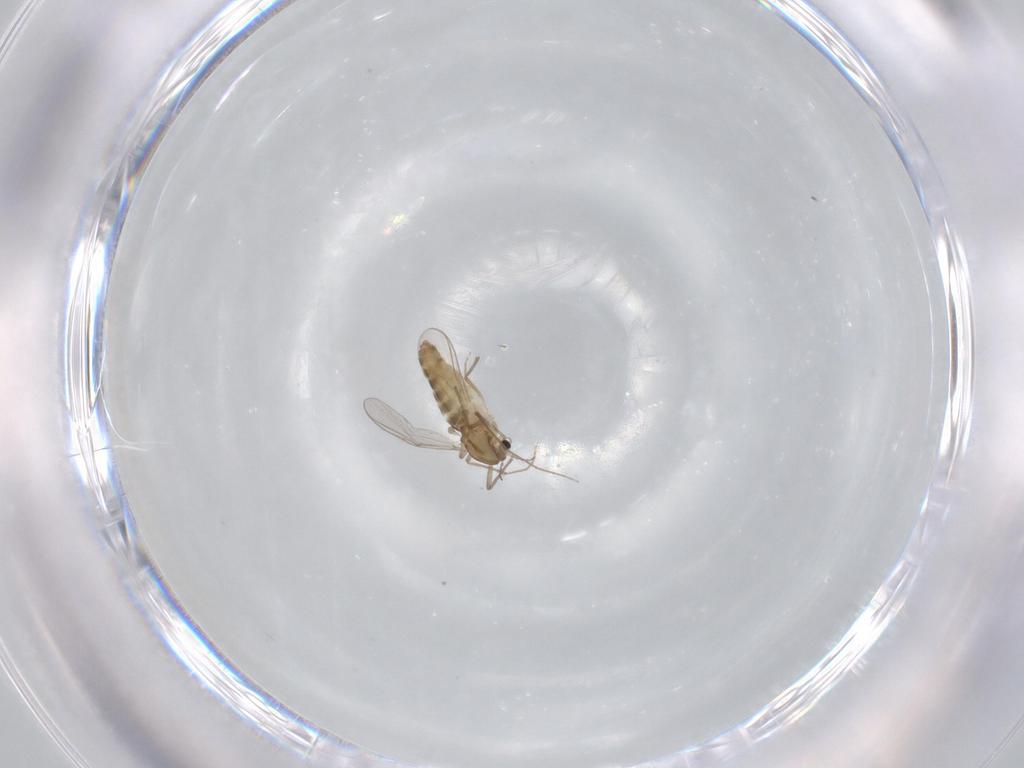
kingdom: Animalia
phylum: Arthropoda
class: Insecta
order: Diptera
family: Chironomidae
